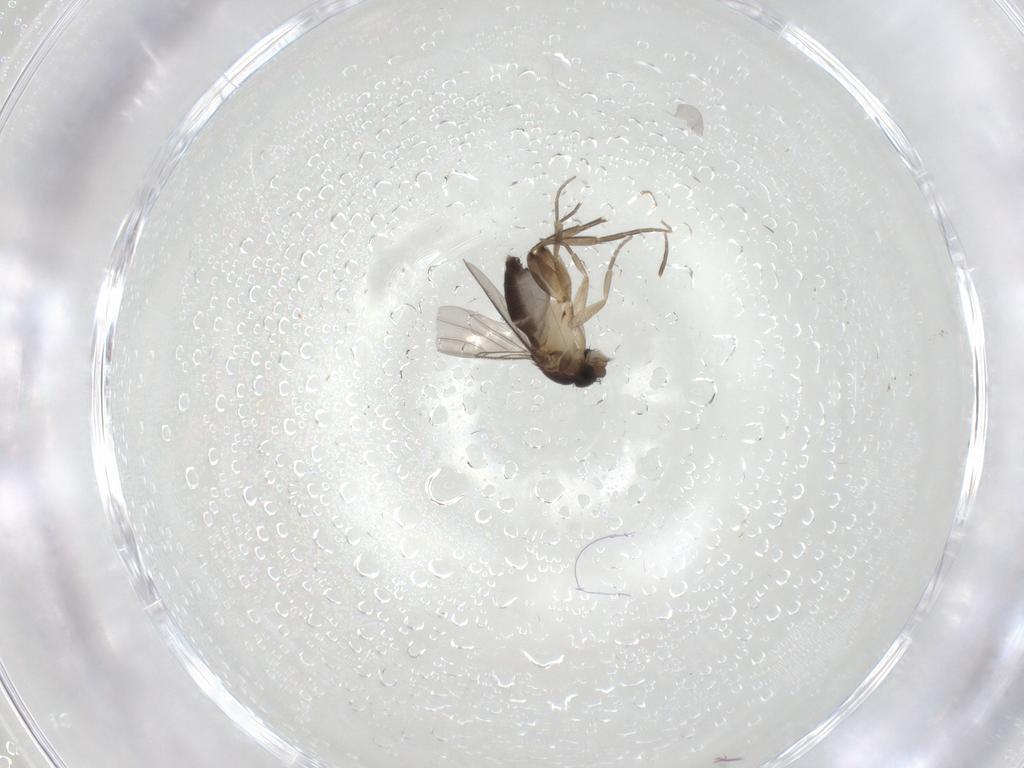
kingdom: Animalia
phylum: Arthropoda
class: Insecta
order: Diptera
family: Phoridae
